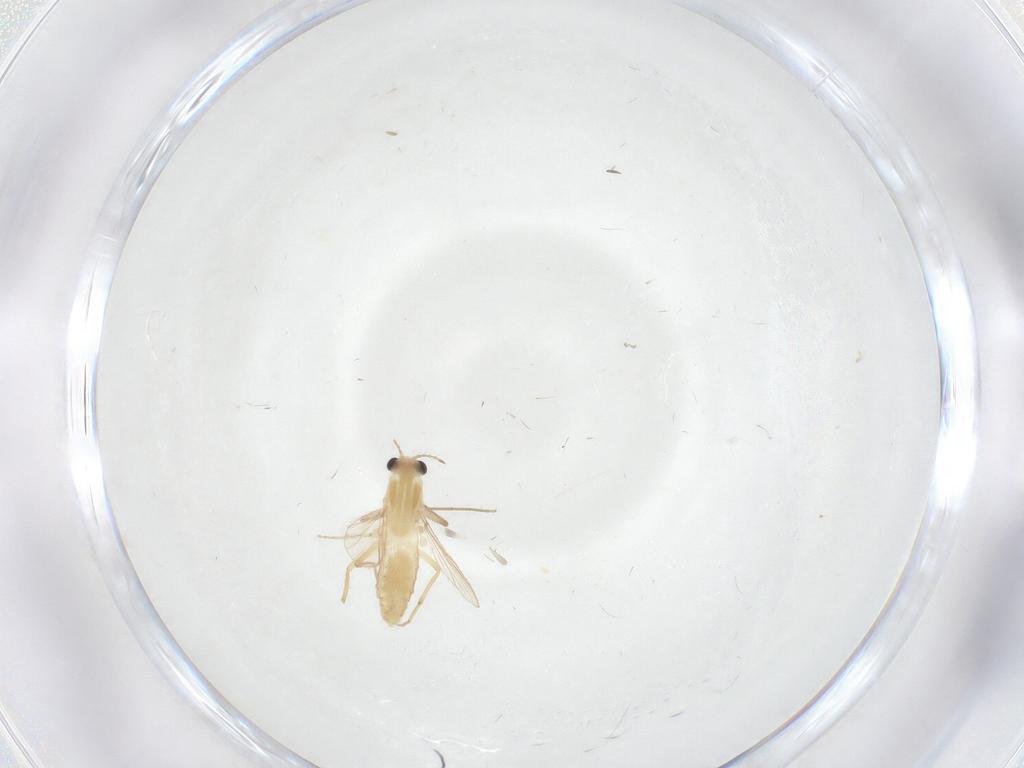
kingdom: Animalia
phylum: Arthropoda
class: Insecta
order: Diptera
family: Chironomidae
